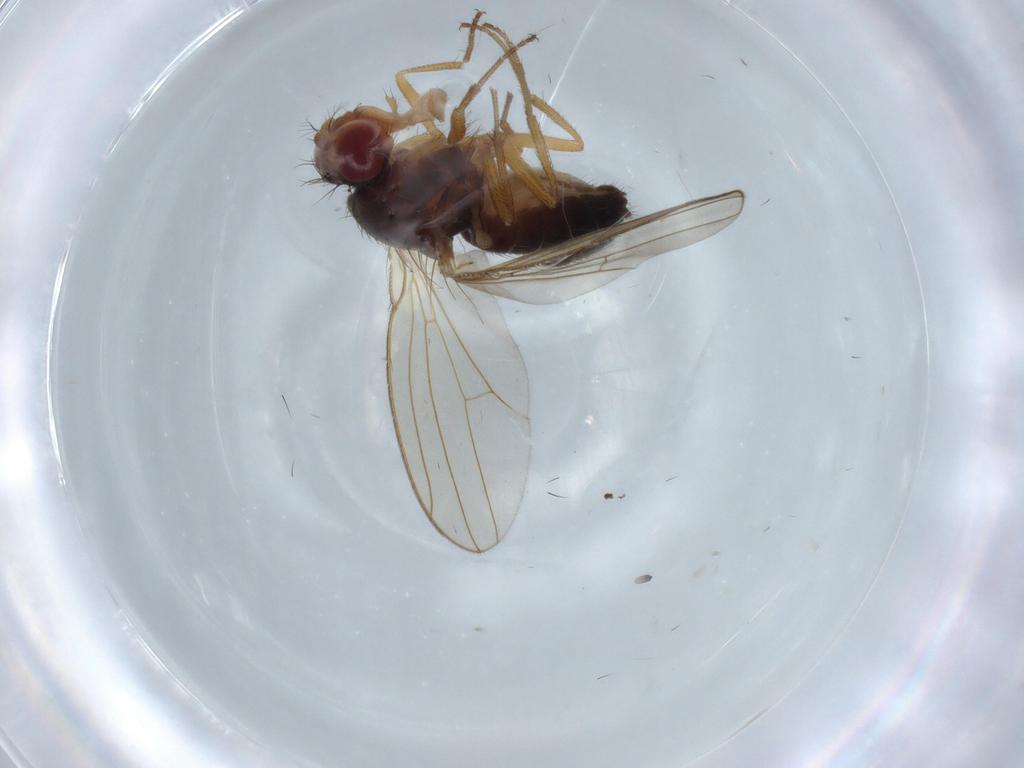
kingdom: Animalia
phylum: Arthropoda
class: Insecta
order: Diptera
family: Drosophilidae
